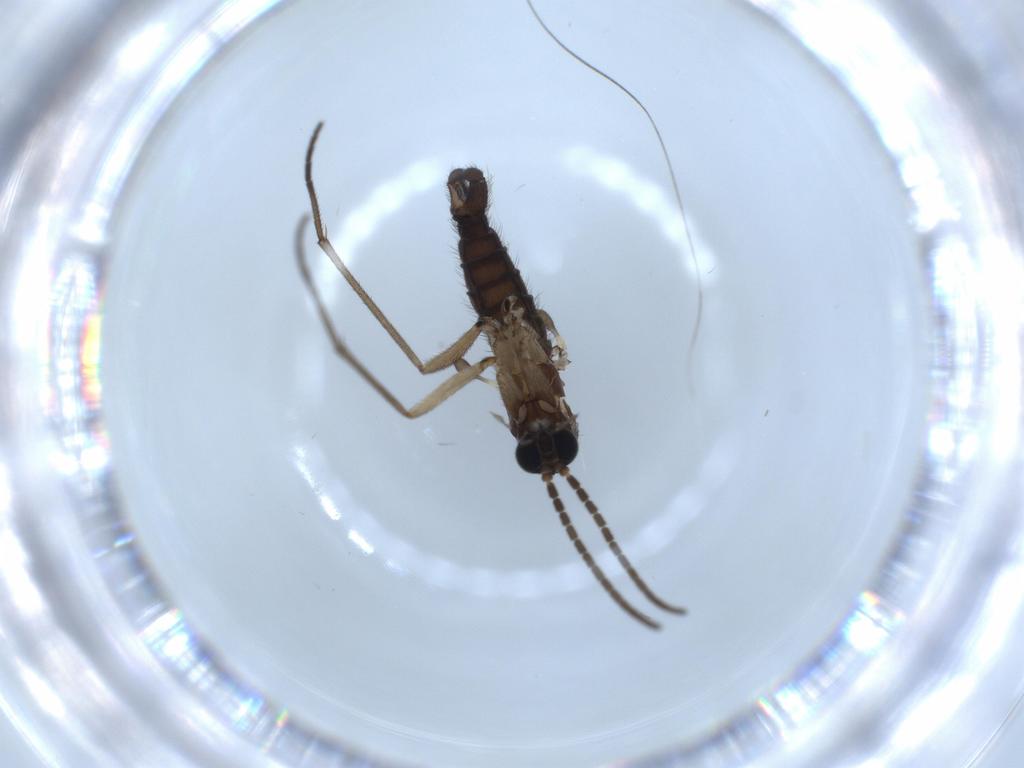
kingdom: Animalia
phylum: Arthropoda
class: Insecta
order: Diptera
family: Sciaridae
